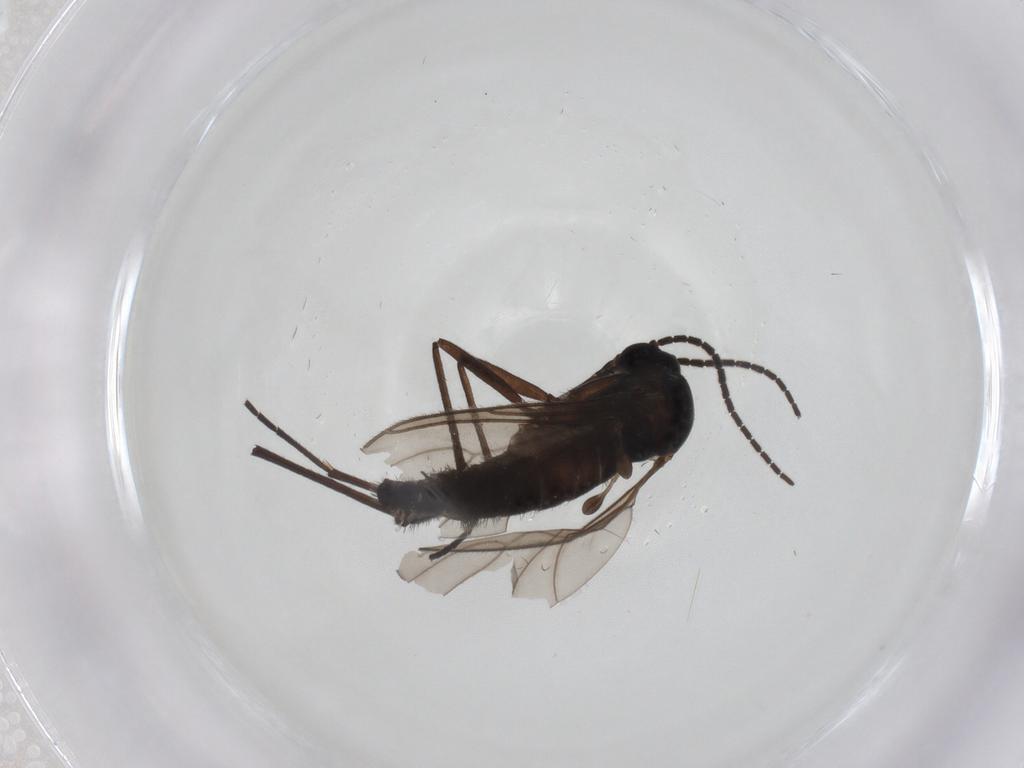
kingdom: Animalia
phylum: Arthropoda
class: Insecta
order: Diptera
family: Sciaridae
